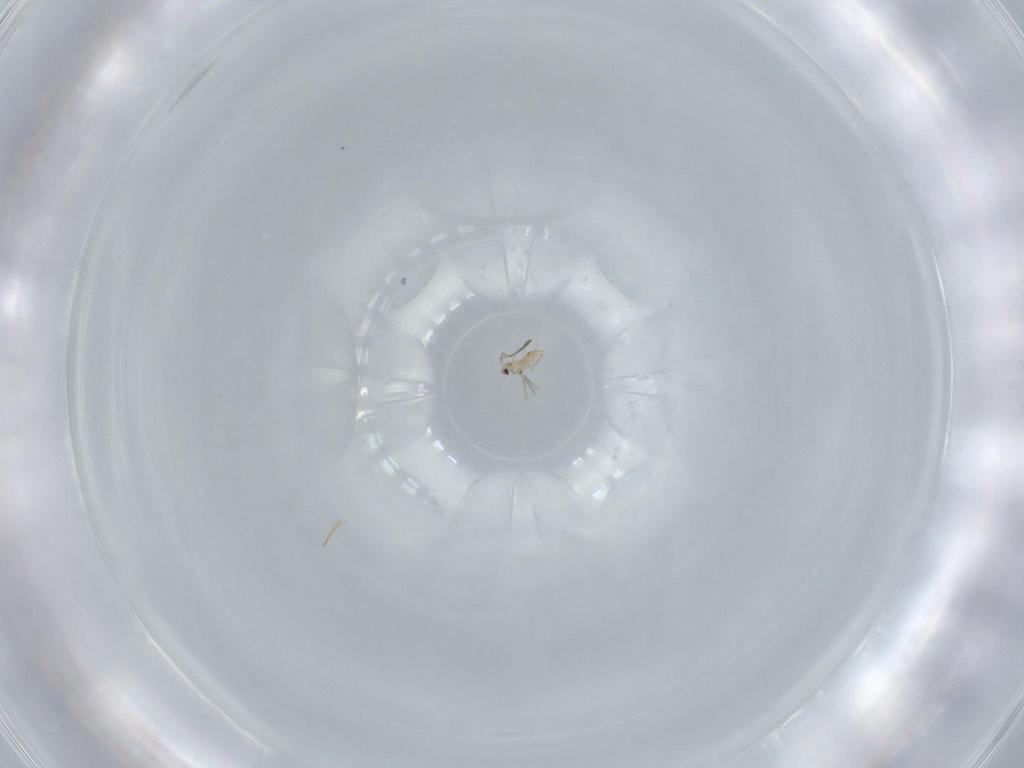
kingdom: Animalia
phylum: Arthropoda
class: Insecta
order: Hymenoptera
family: Mymaridae
